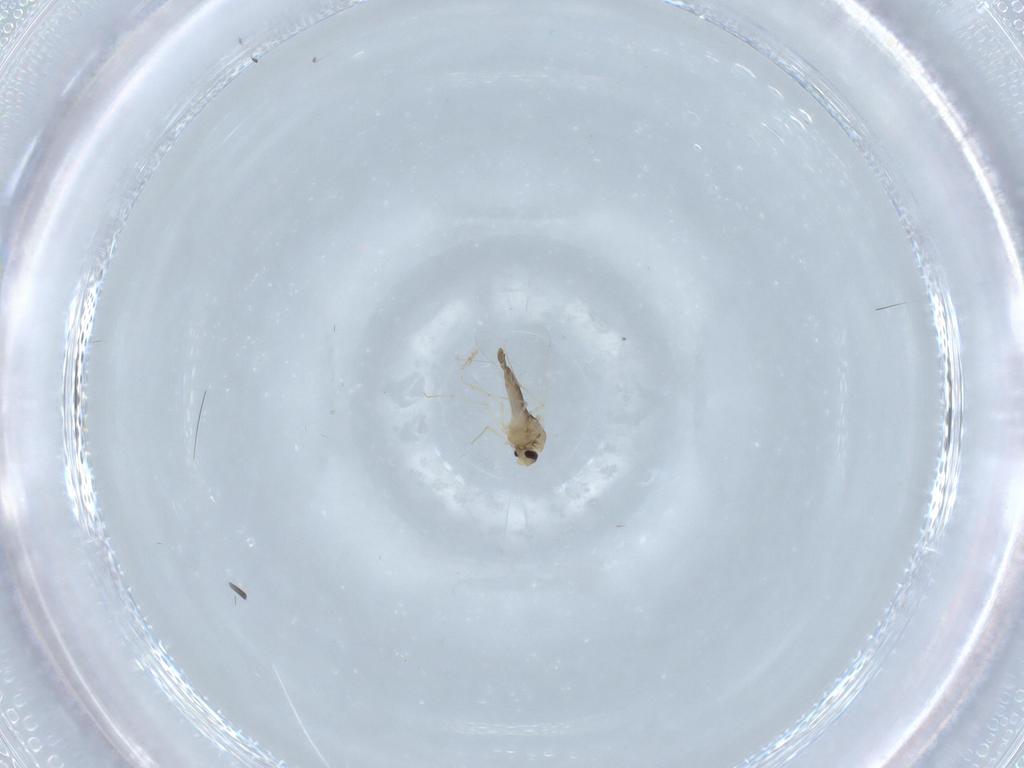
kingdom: Animalia
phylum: Arthropoda
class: Insecta
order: Diptera
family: Chironomidae
